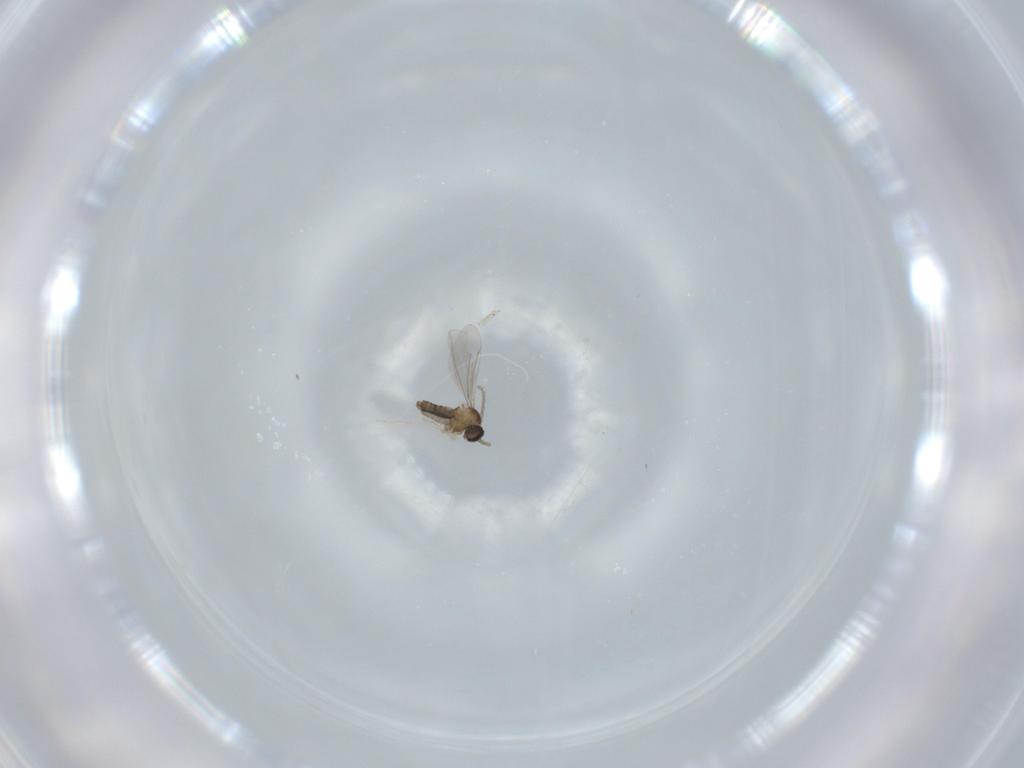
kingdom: Animalia
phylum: Arthropoda
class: Insecta
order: Diptera
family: Cecidomyiidae
